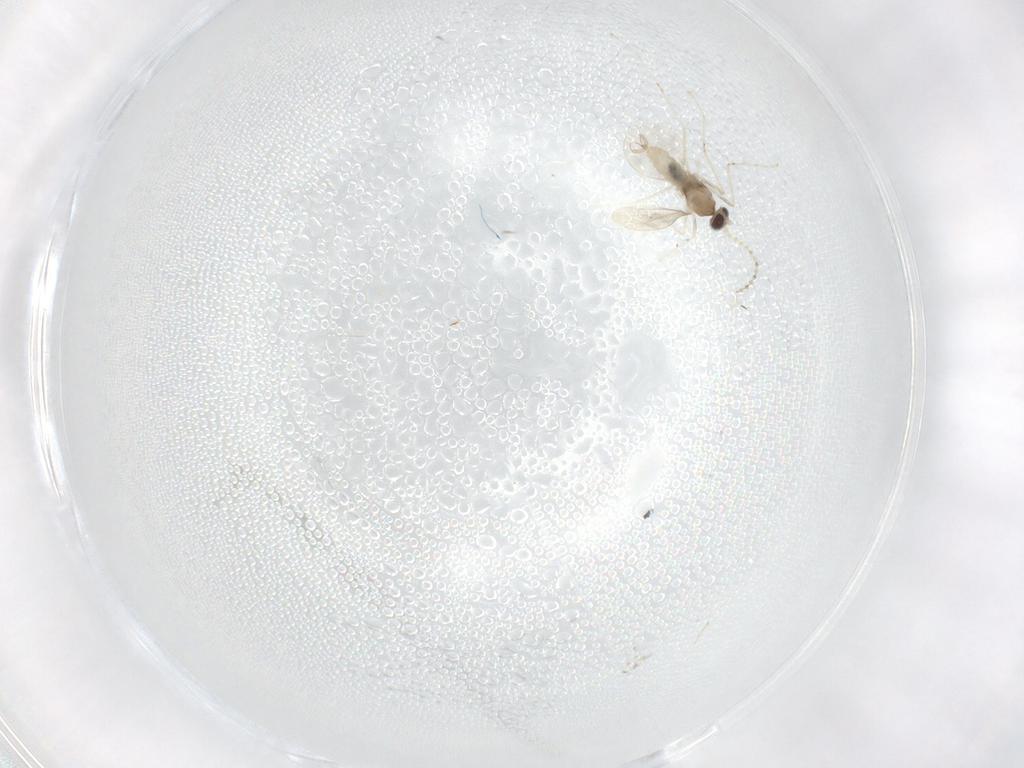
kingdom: Animalia
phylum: Arthropoda
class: Insecta
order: Diptera
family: Cecidomyiidae
